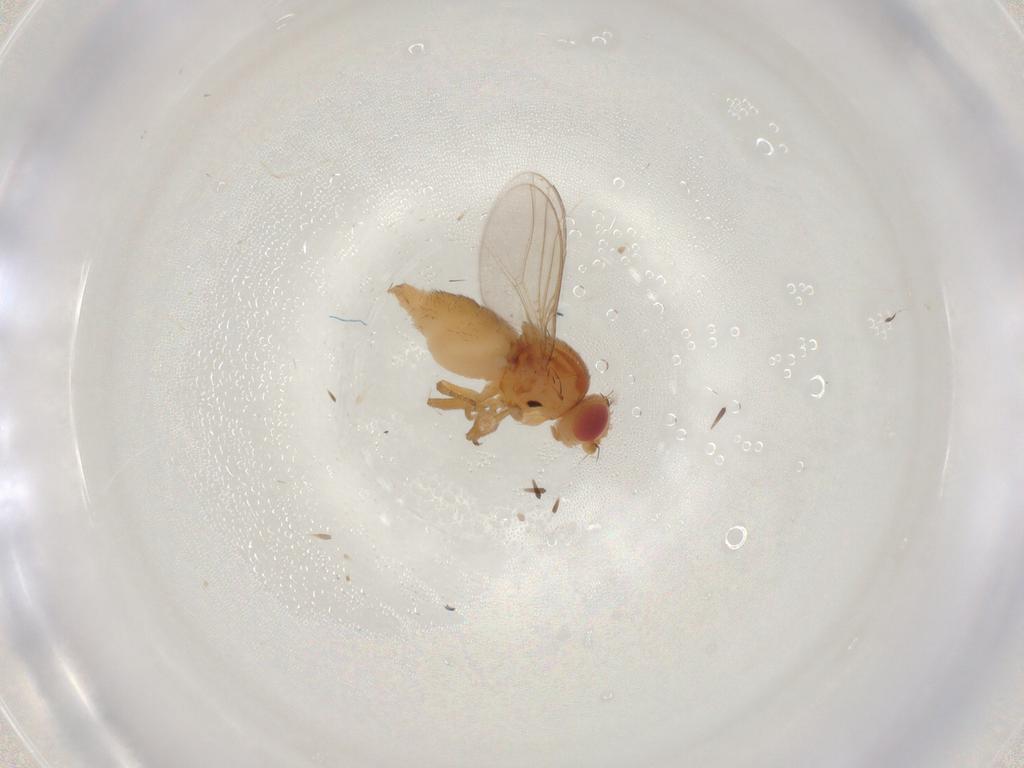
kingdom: Animalia
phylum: Arthropoda
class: Insecta
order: Diptera
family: Chloropidae
